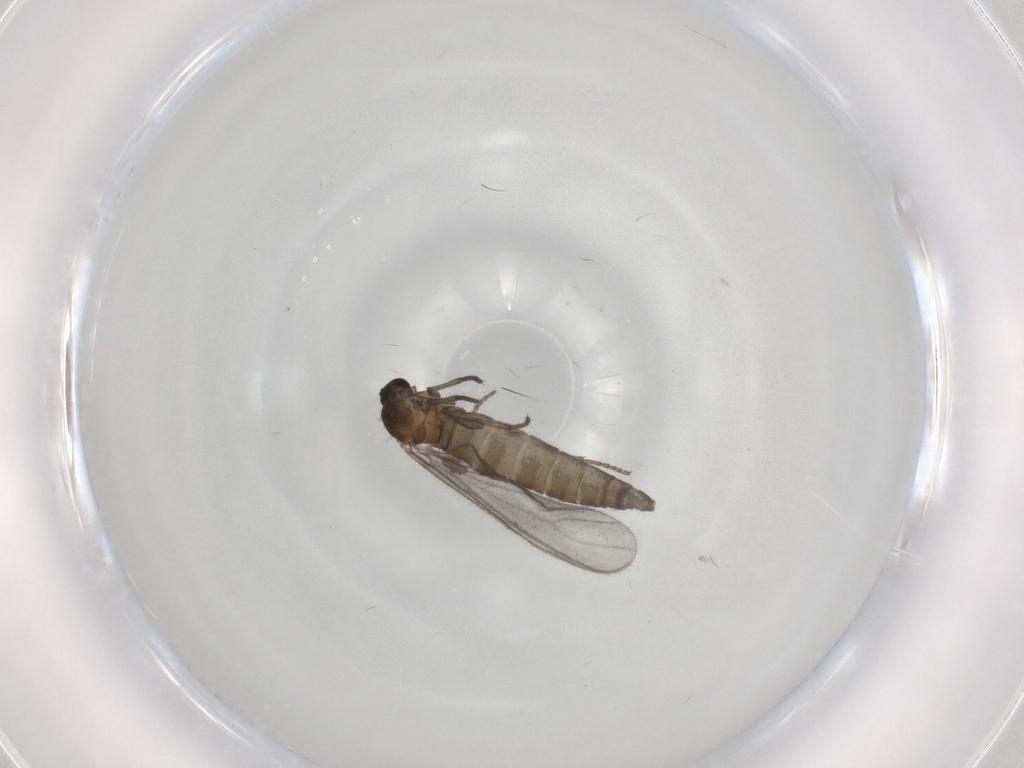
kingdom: Animalia
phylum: Arthropoda
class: Insecta
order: Diptera
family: Sciaridae
